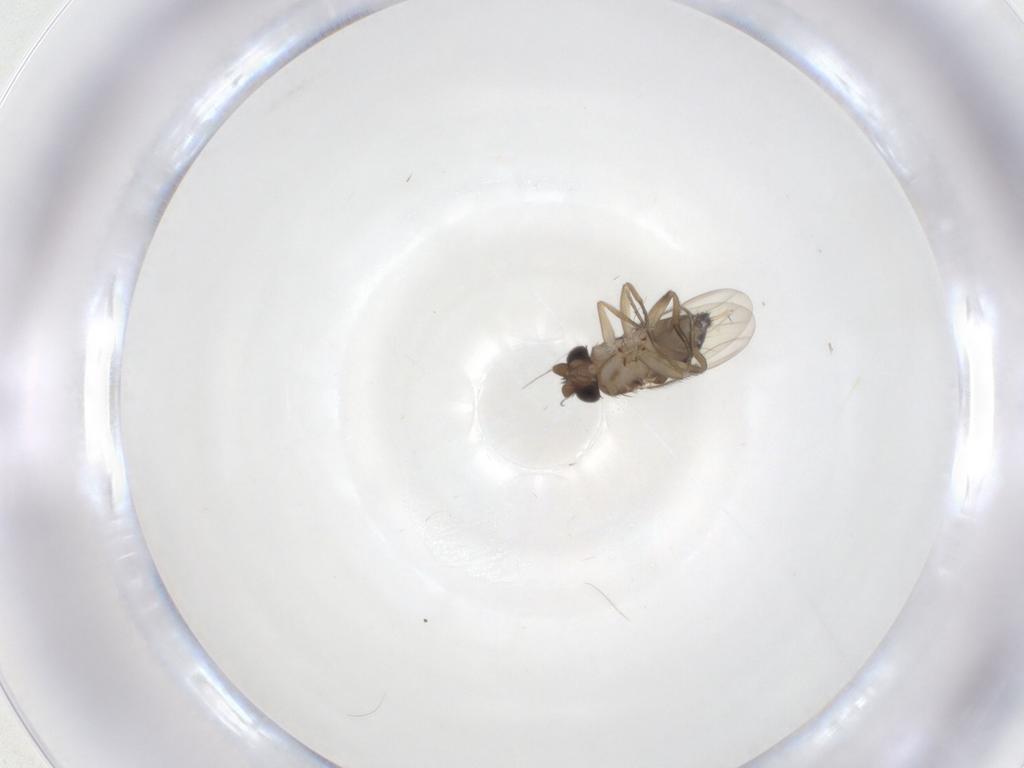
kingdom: Animalia
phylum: Arthropoda
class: Insecta
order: Diptera
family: Phoridae
